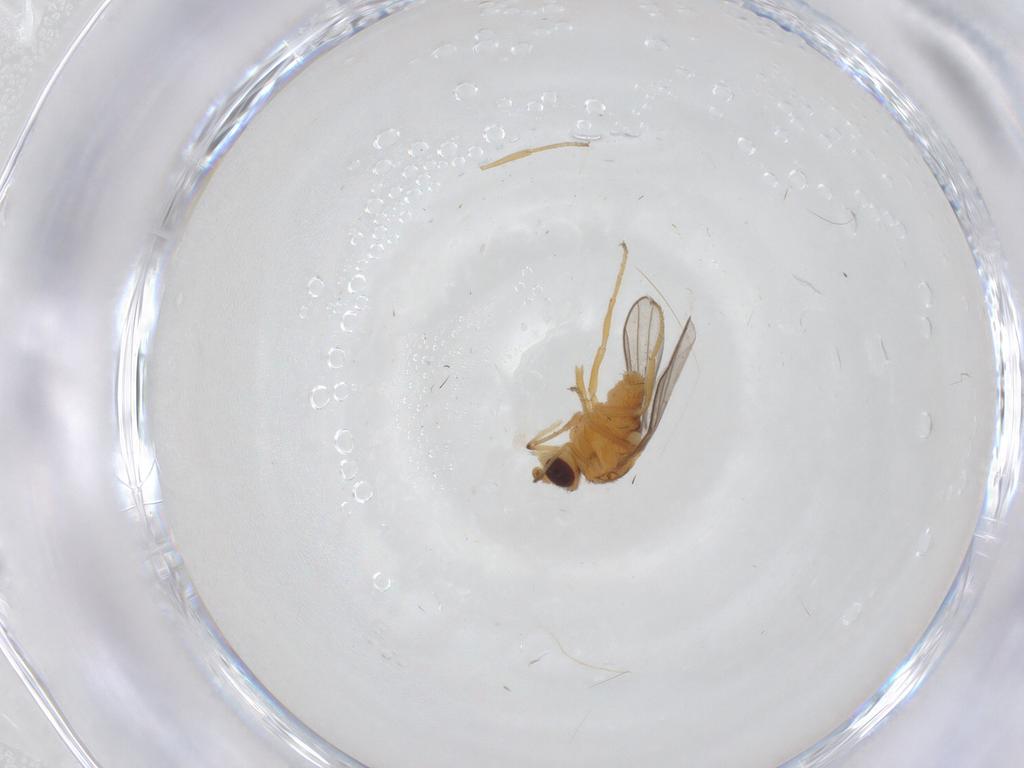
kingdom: Animalia
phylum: Arthropoda
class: Insecta
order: Diptera
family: Chloropidae
